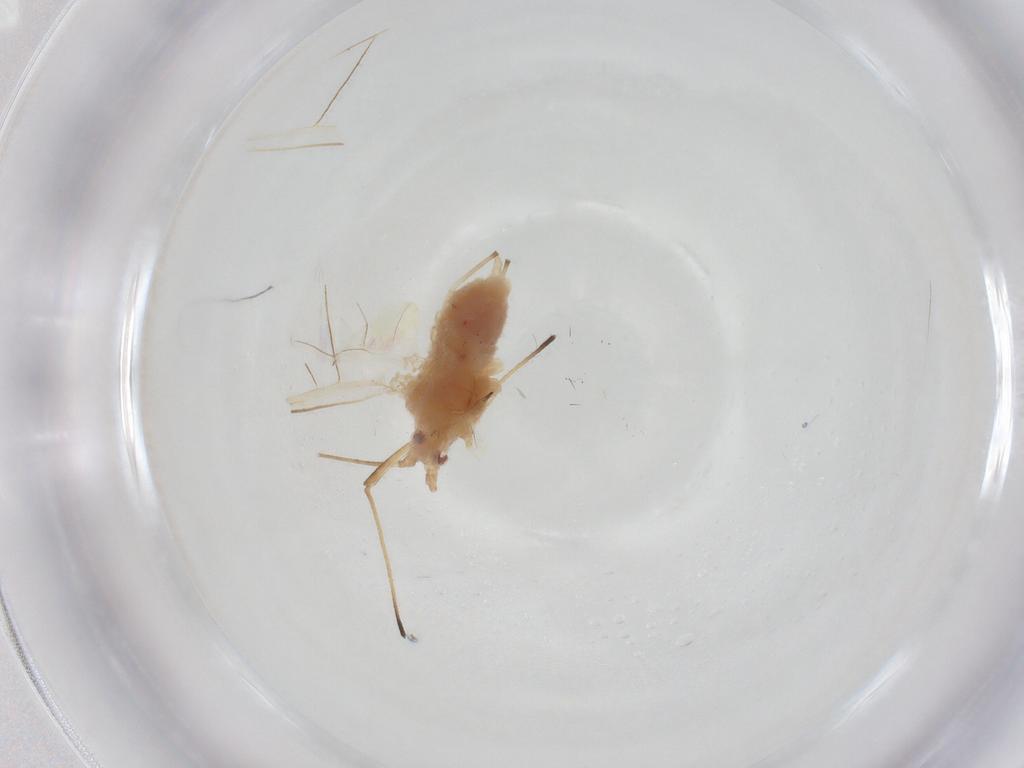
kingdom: Animalia
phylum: Arthropoda
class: Insecta
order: Hemiptera
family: Aphididae
